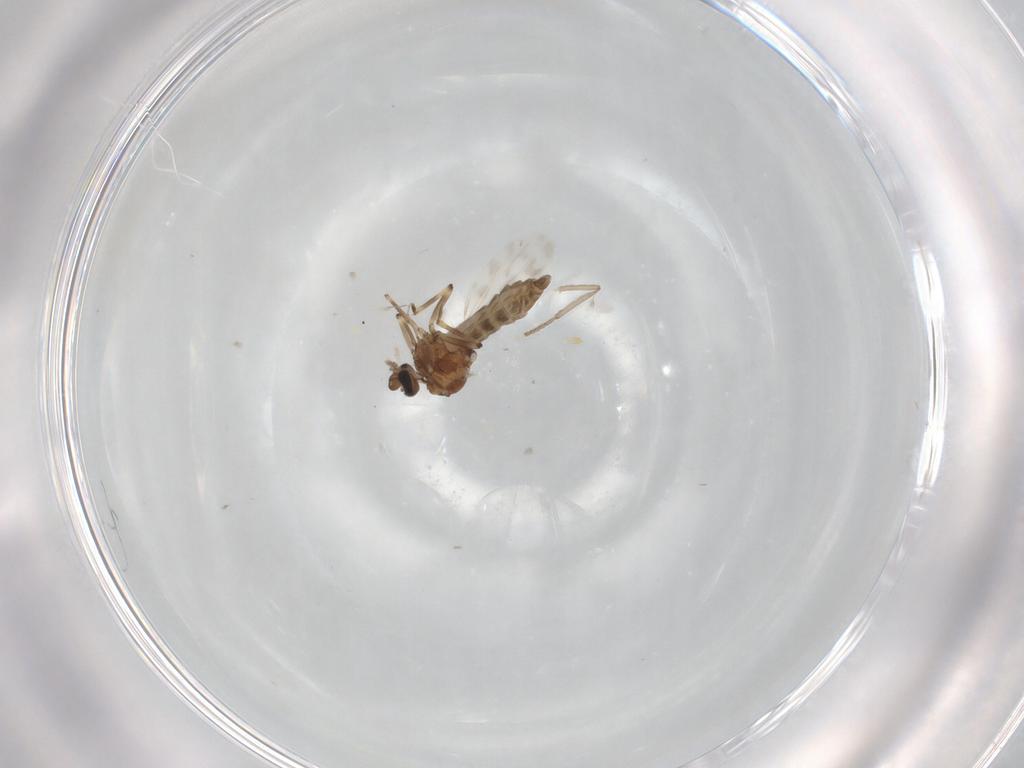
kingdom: Animalia
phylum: Arthropoda
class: Insecta
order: Diptera
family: Ceratopogonidae
